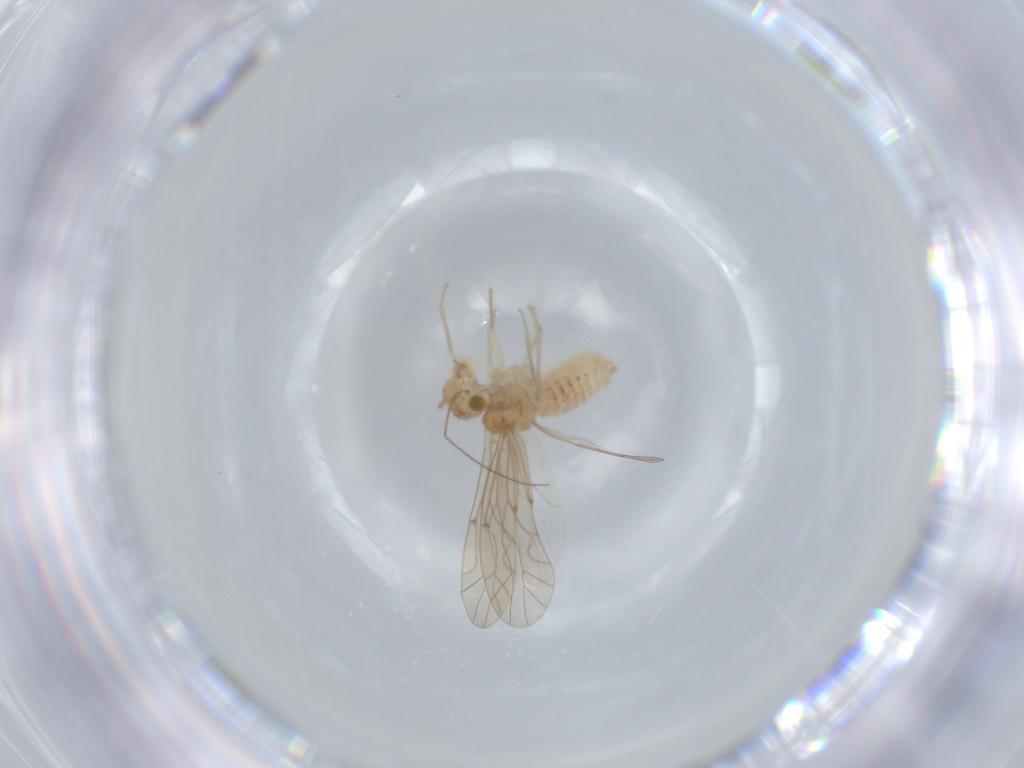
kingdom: Animalia
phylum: Arthropoda
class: Insecta
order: Psocodea
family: Lachesillidae
